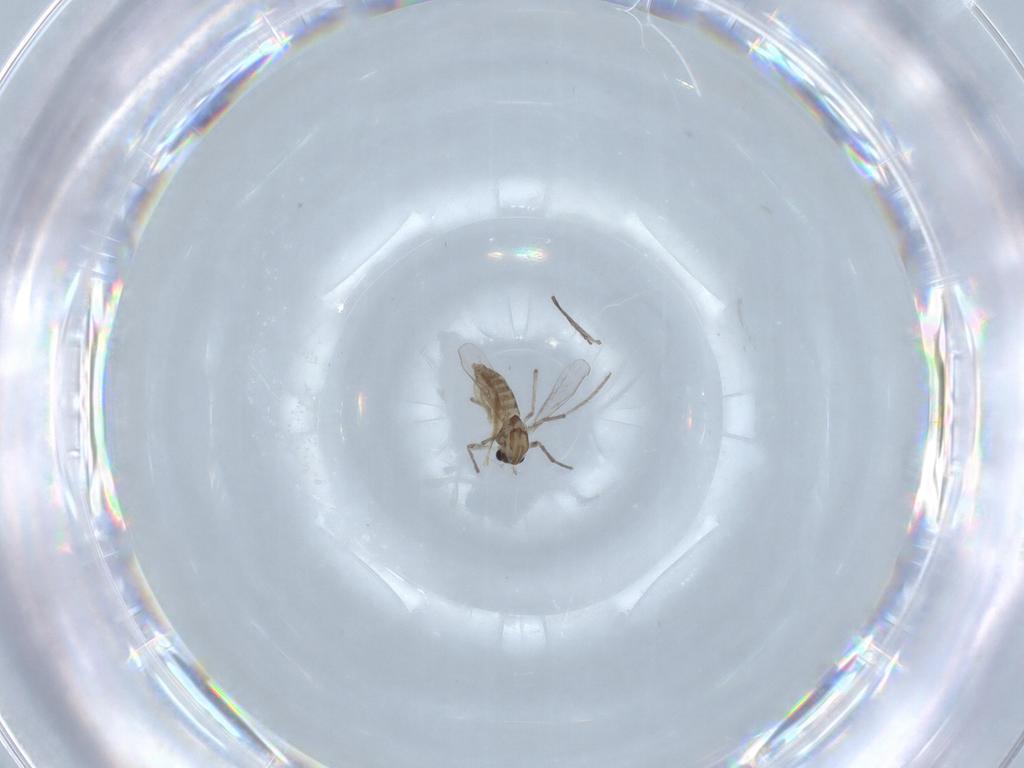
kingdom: Animalia
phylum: Arthropoda
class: Insecta
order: Diptera
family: Chironomidae
